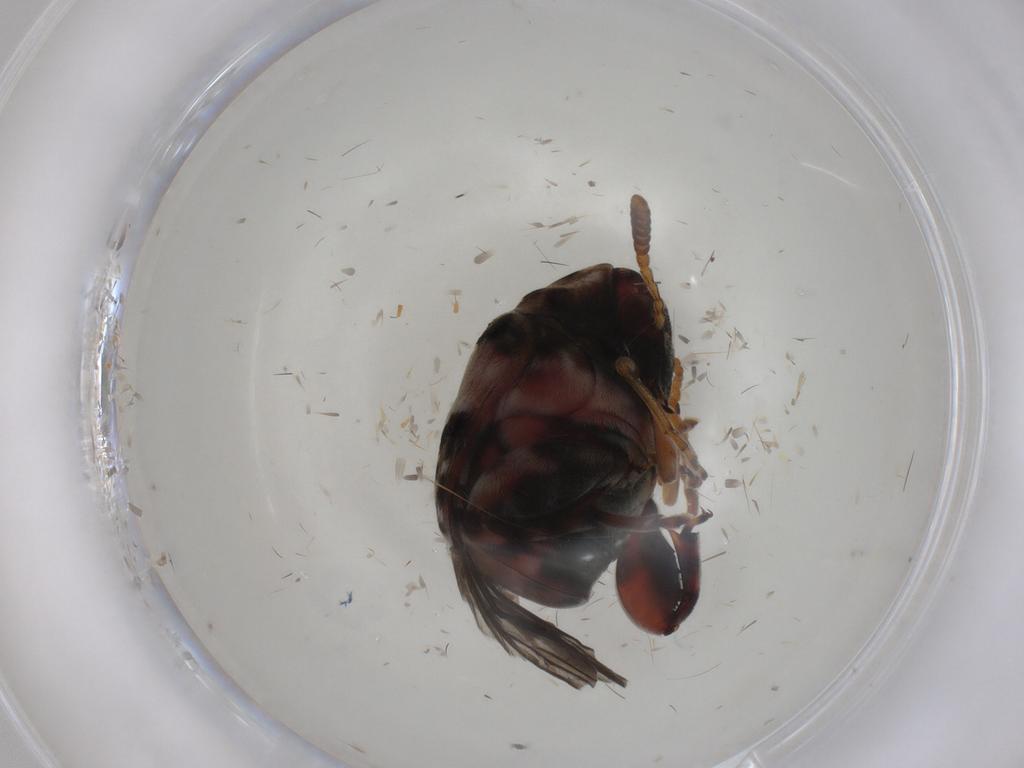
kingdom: Animalia
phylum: Arthropoda
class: Insecta
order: Coleoptera
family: Chrysomelidae
